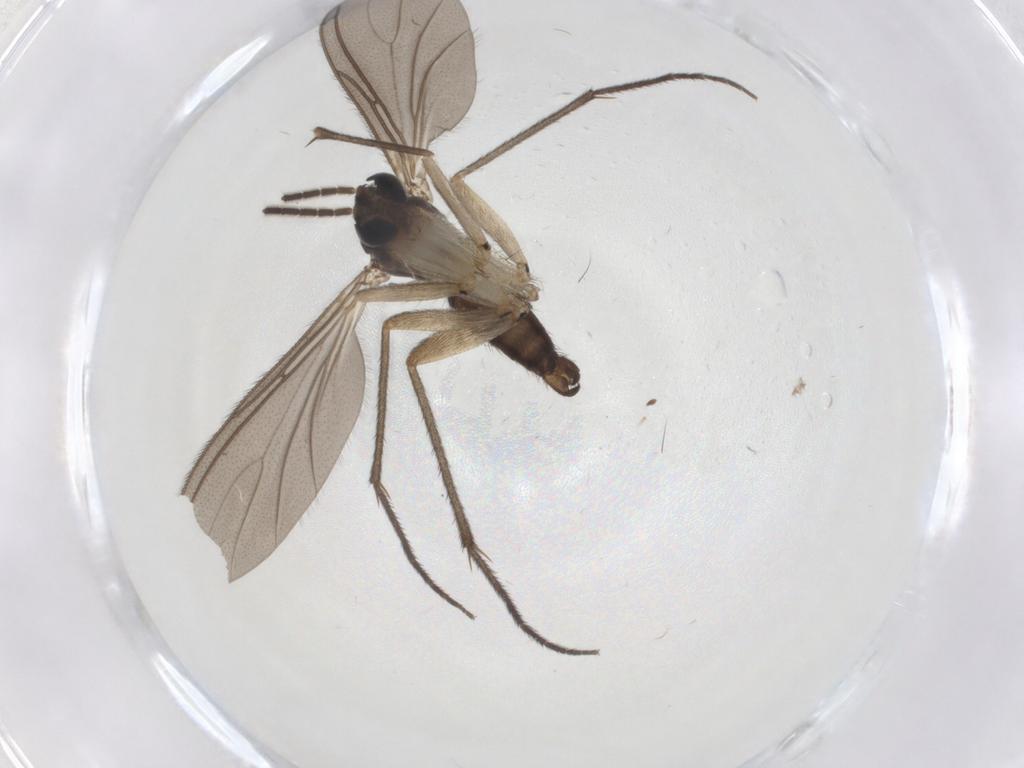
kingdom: Animalia
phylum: Arthropoda
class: Insecta
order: Diptera
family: Sciaridae
